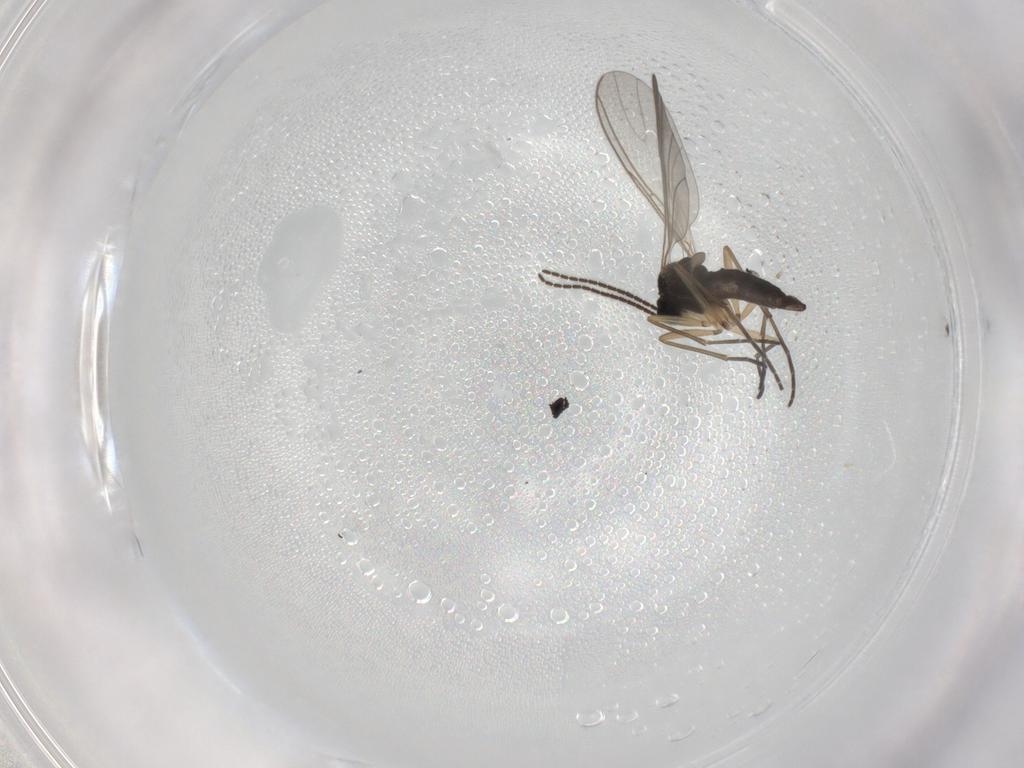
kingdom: Animalia
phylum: Arthropoda
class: Insecta
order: Diptera
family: Sciaridae
